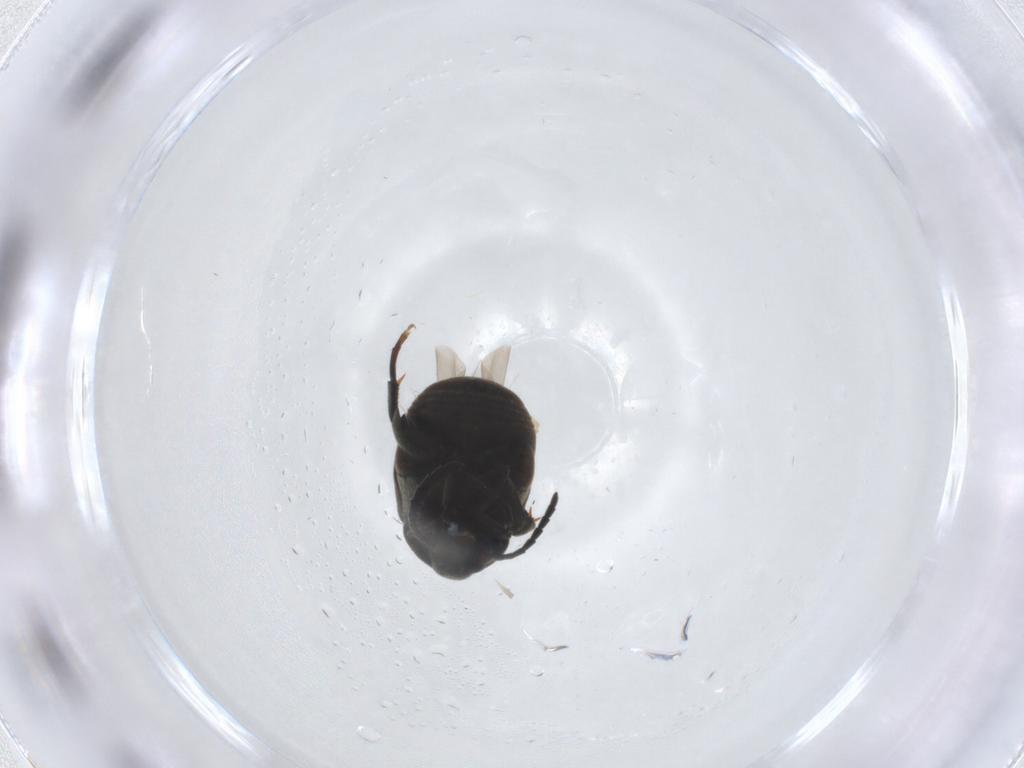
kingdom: Animalia
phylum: Arthropoda
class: Insecta
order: Coleoptera
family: Chrysomelidae
